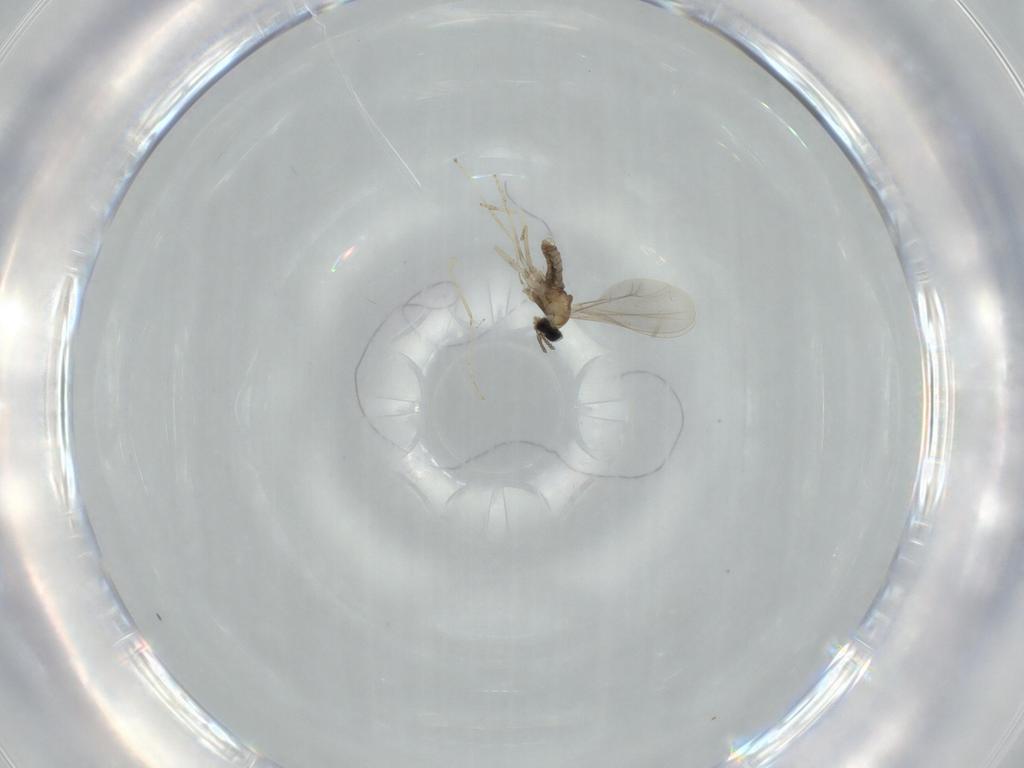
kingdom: Animalia
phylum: Arthropoda
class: Insecta
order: Diptera
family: Cecidomyiidae
